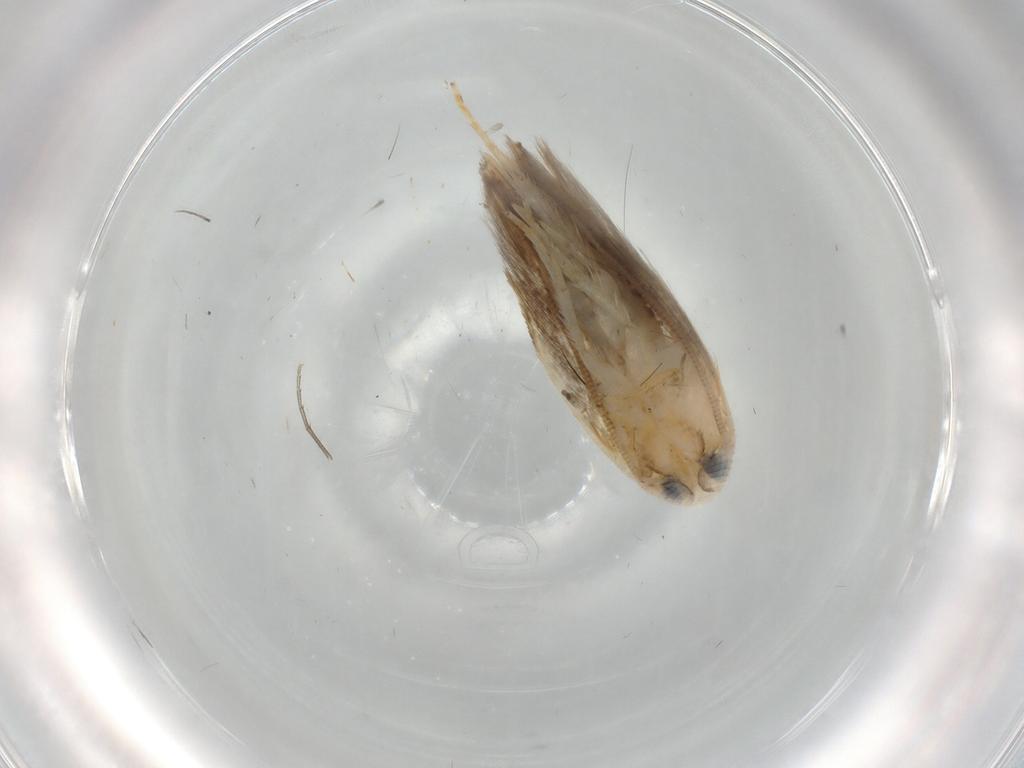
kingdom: Animalia
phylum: Arthropoda
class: Insecta
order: Lepidoptera
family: Opostegidae
